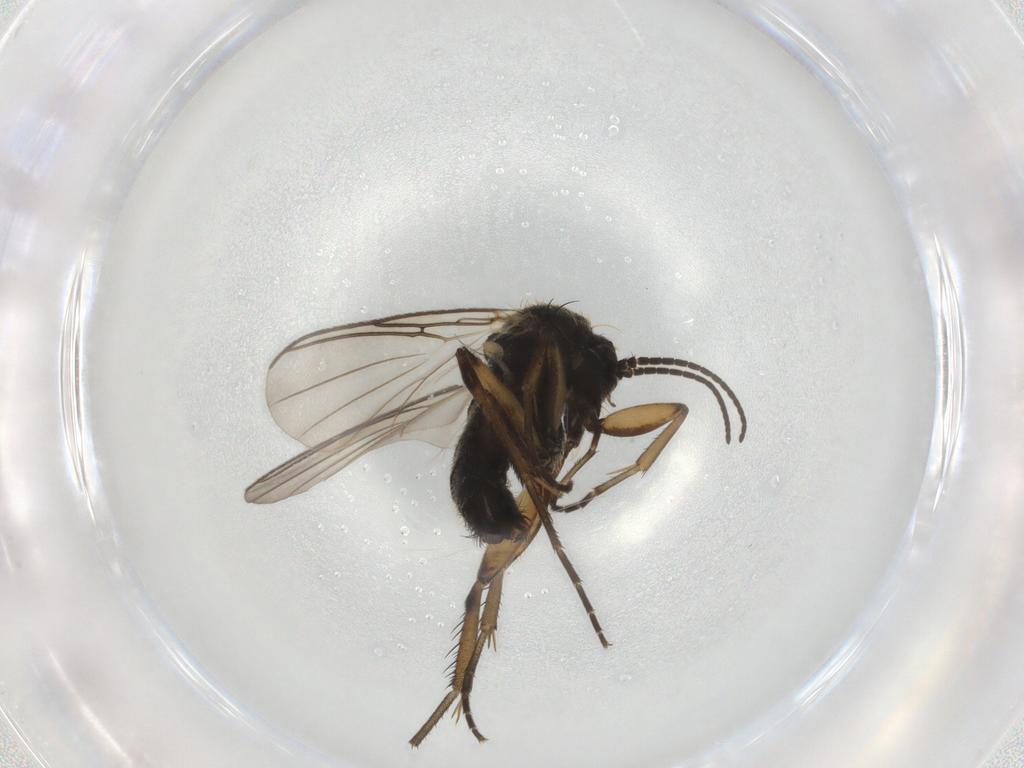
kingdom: Animalia
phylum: Arthropoda
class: Insecta
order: Diptera
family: Mycetophilidae
